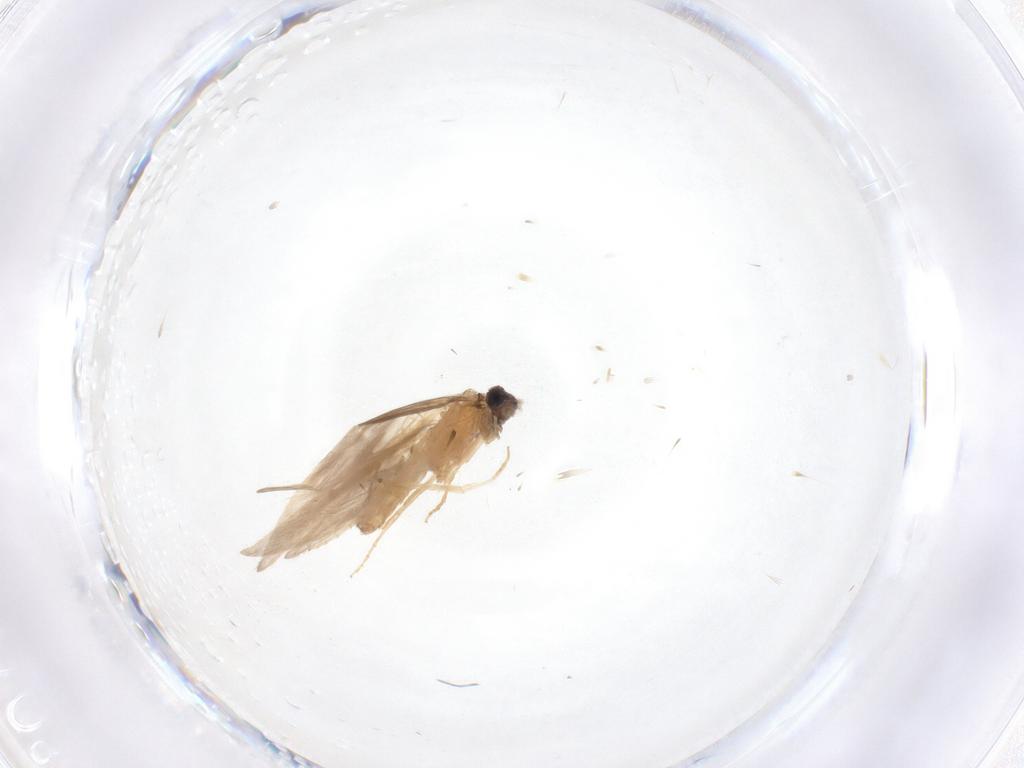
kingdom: Animalia
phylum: Arthropoda
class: Insecta
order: Trichoptera
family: Hydroptilidae
